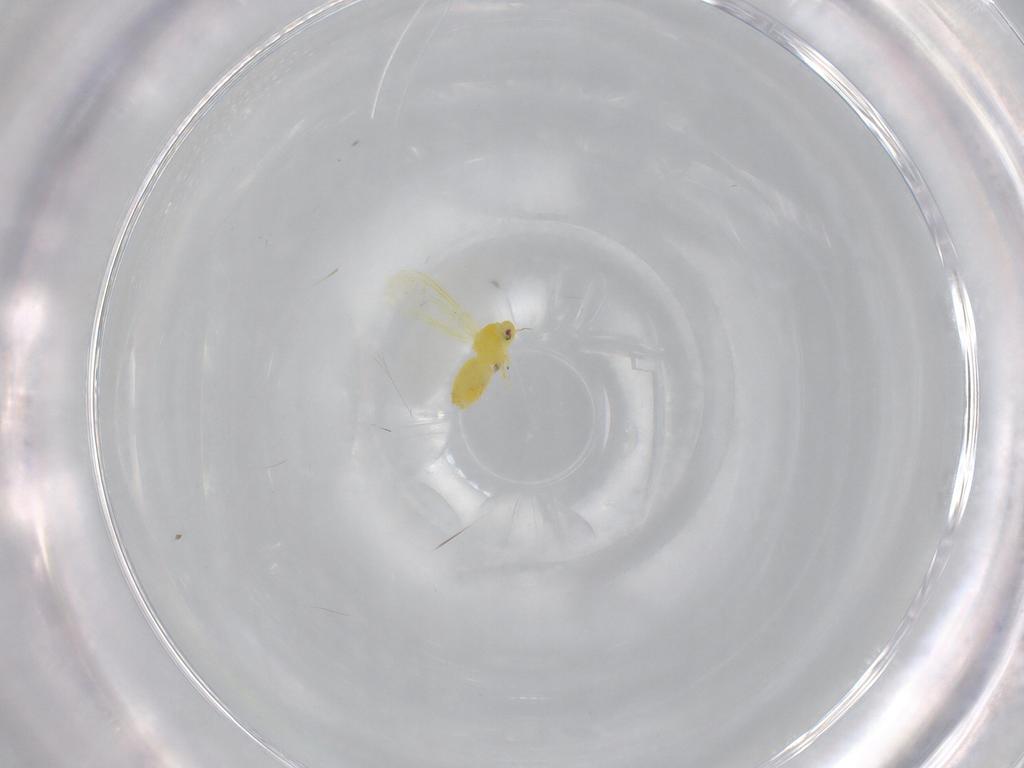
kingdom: Animalia
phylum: Arthropoda
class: Insecta
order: Hemiptera
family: Aleyrodidae
